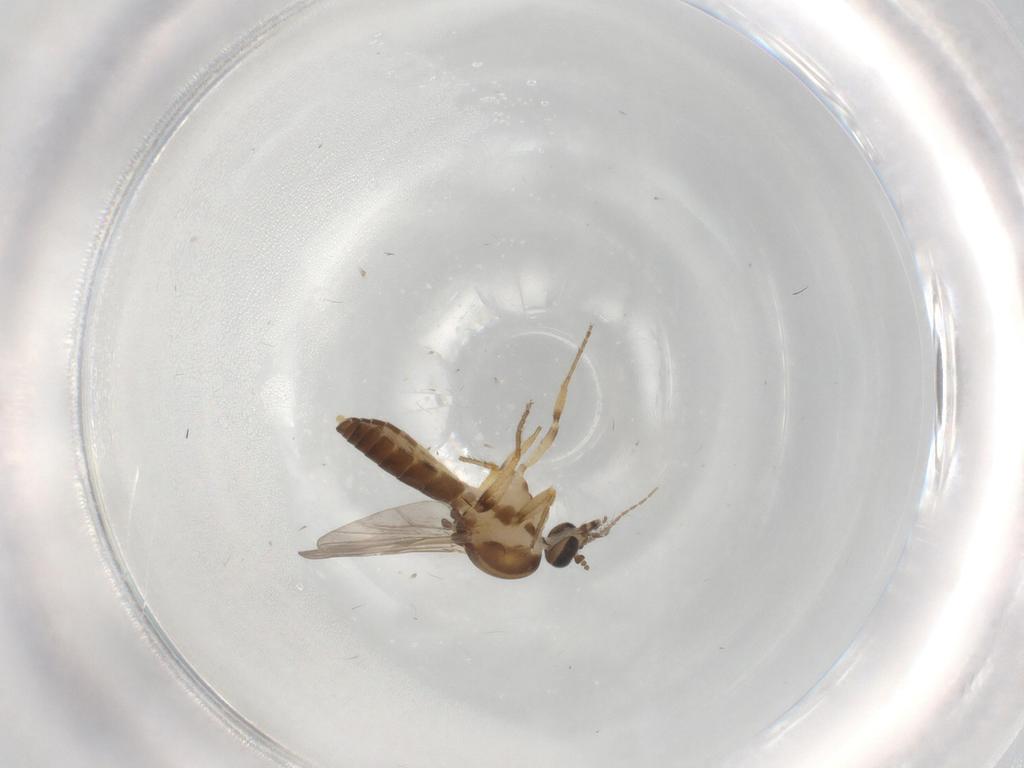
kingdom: Animalia
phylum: Arthropoda
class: Insecta
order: Diptera
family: Ceratopogonidae
